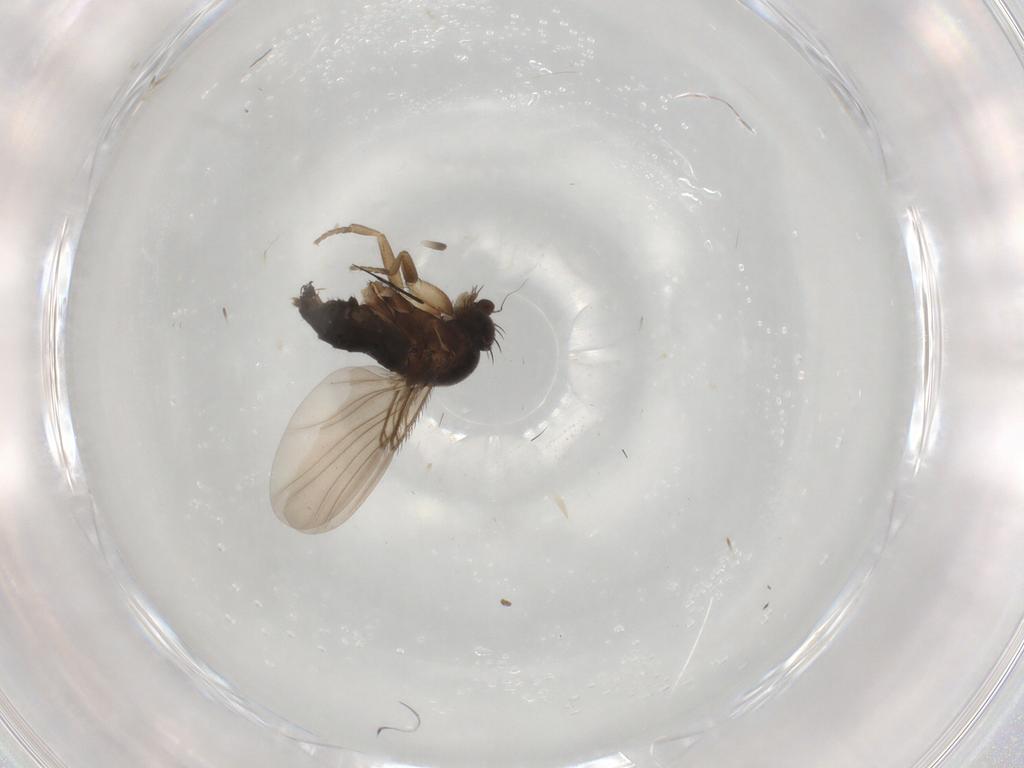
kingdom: Animalia
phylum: Arthropoda
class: Insecta
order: Diptera
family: Phoridae
